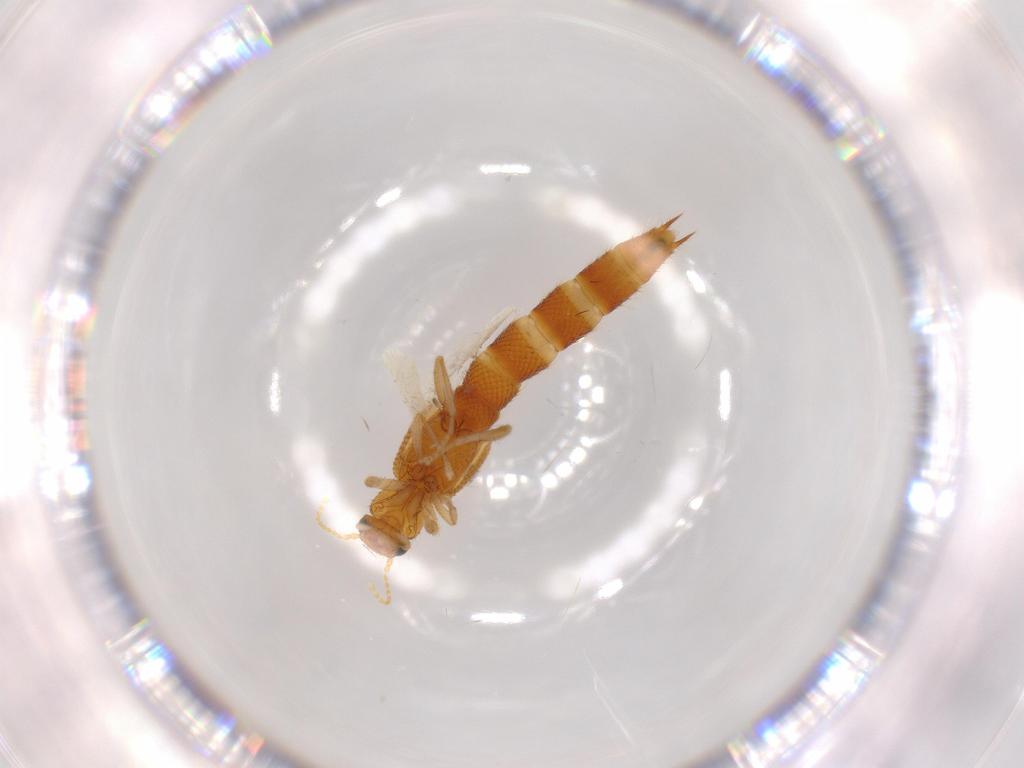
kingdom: Animalia
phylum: Arthropoda
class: Insecta
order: Coleoptera
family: Staphylinidae
